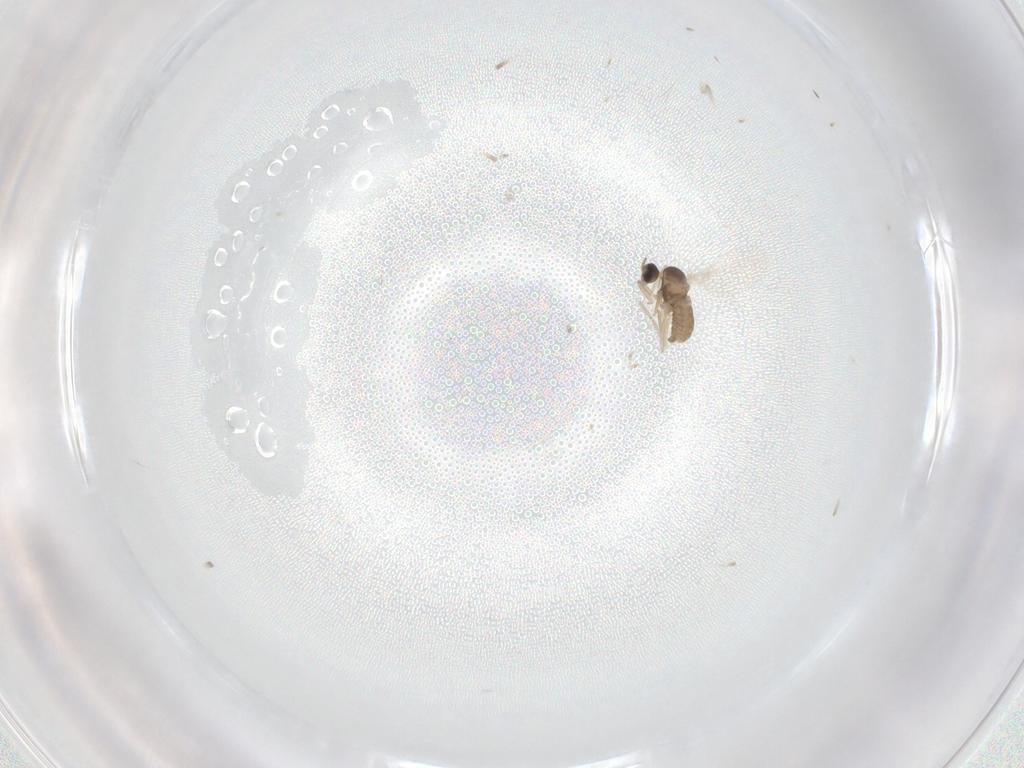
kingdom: Animalia
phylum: Arthropoda
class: Insecta
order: Diptera
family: Cecidomyiidae
